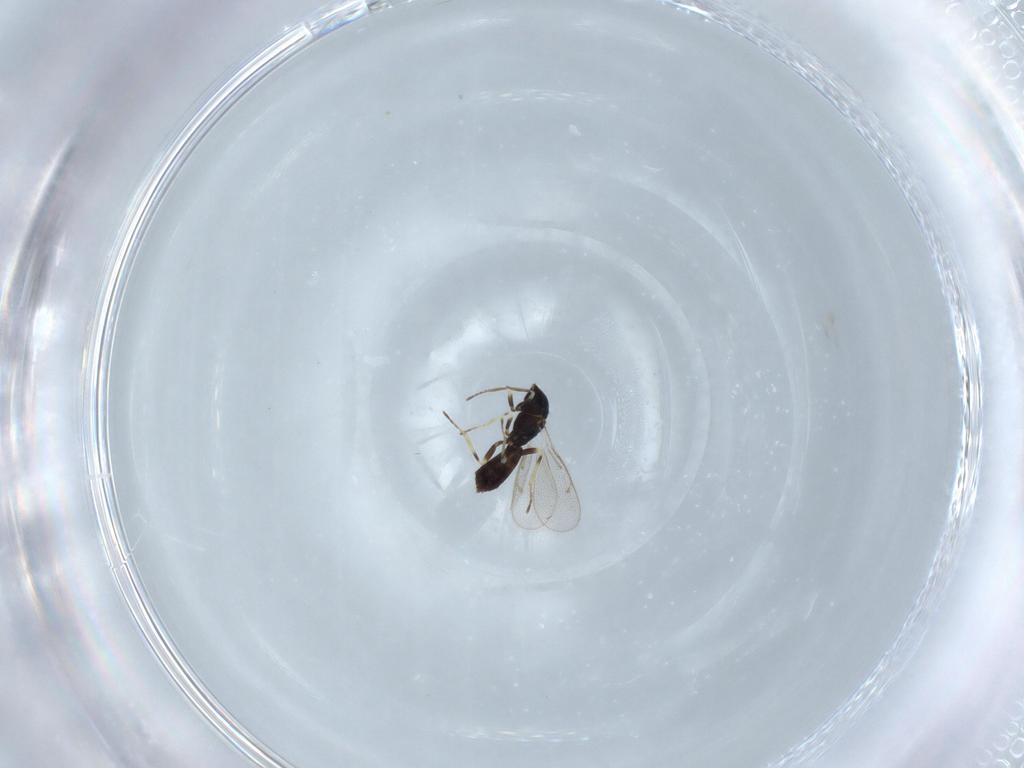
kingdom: Animalia
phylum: Arthropoda
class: Insecta
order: Hymenoptera
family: Eulophidae
